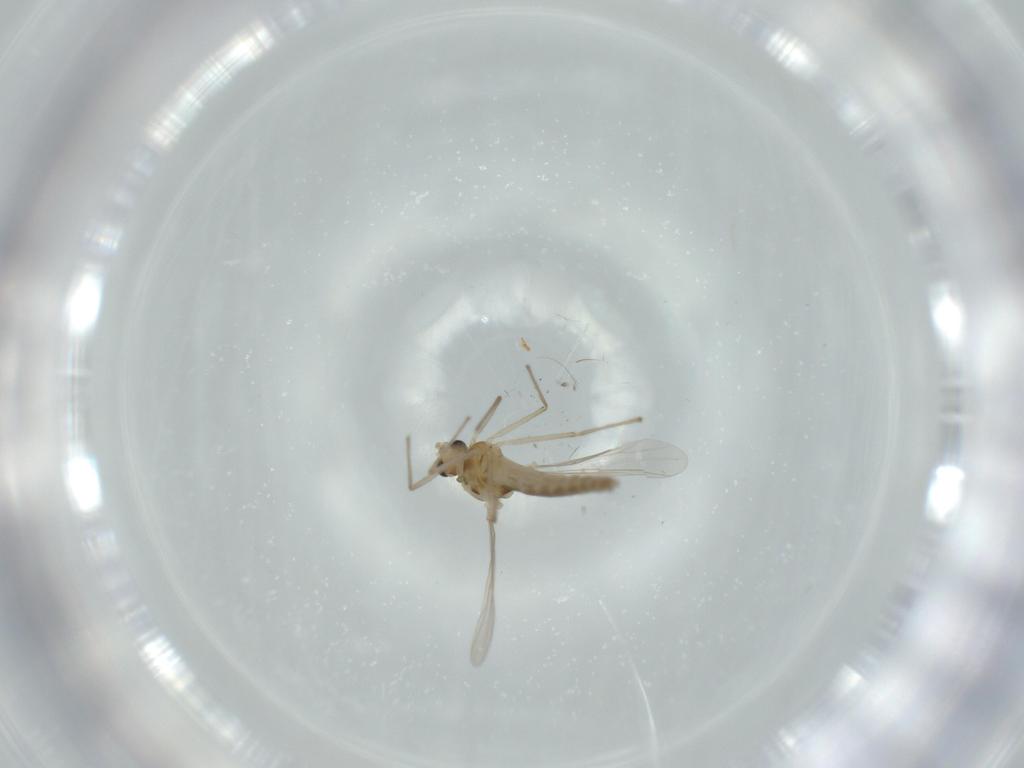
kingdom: Animalia
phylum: Arthropoda
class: Insecta
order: Diptera
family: Chironomidae
